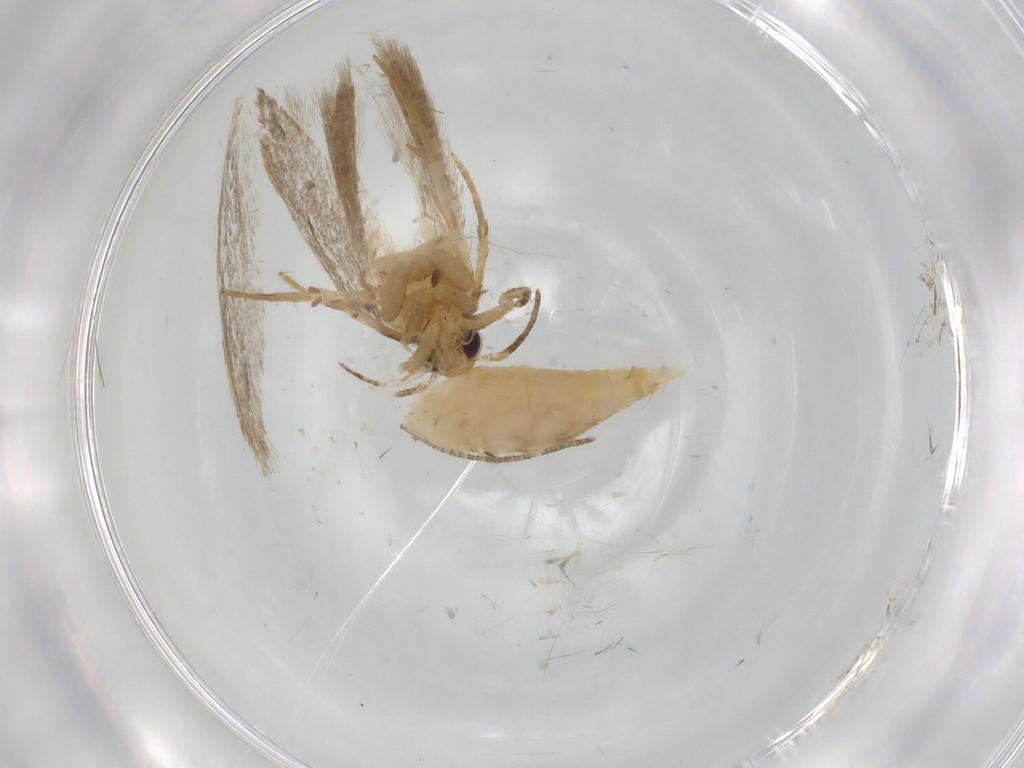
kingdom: Animalia
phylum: Arthropoda
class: Insecta
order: Lepidoptera
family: Autostichidae
